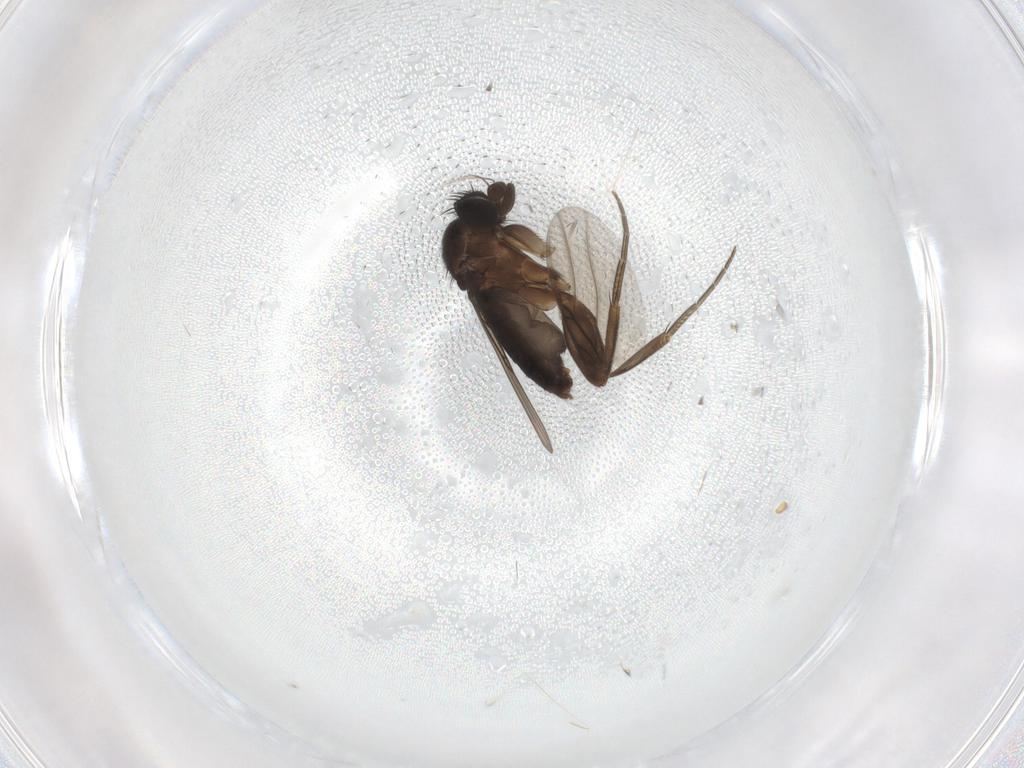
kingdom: Animalia
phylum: Arthropoda
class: Insecta
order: Diptera
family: Phoridae
